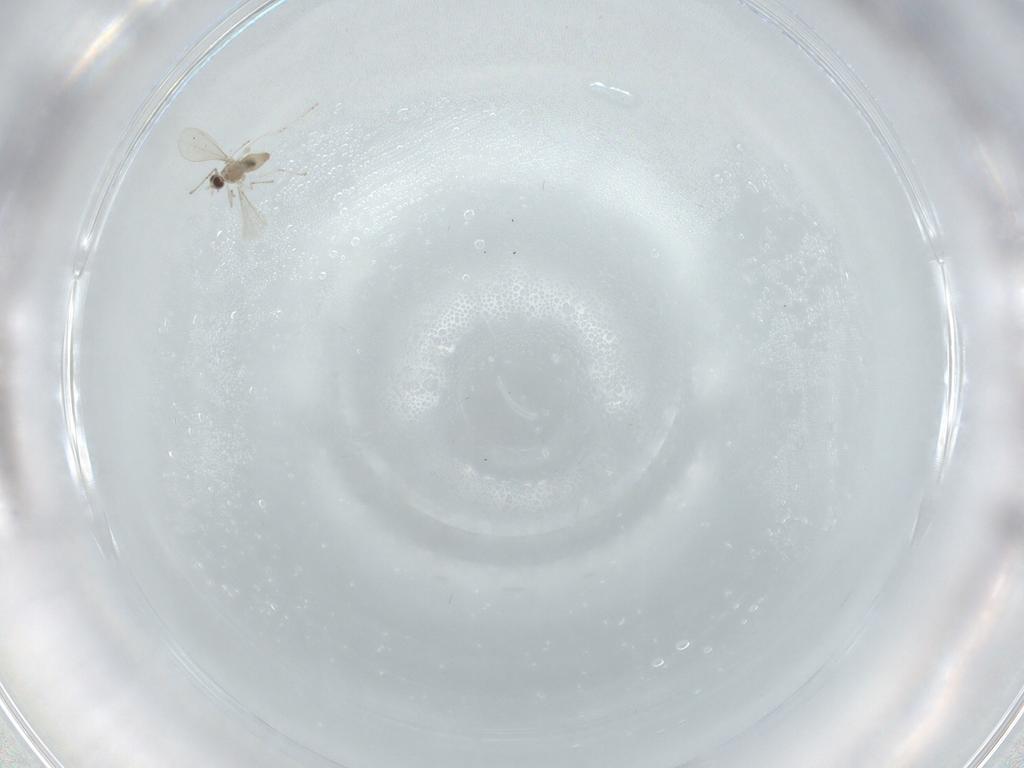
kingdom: Animalia
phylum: Arthropoda
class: Insecta
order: Diptera
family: Cecidomyiidae
